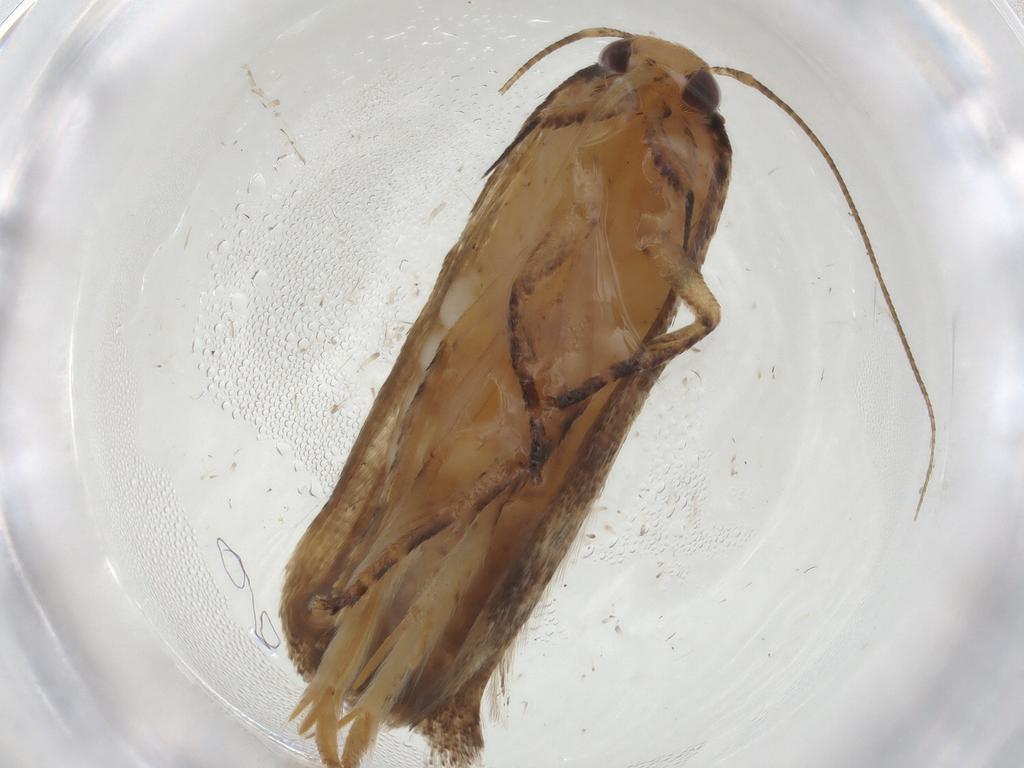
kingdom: Animalia
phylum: Arthropoda
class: Insecta
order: Lepidoptera
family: Gelechiidae
